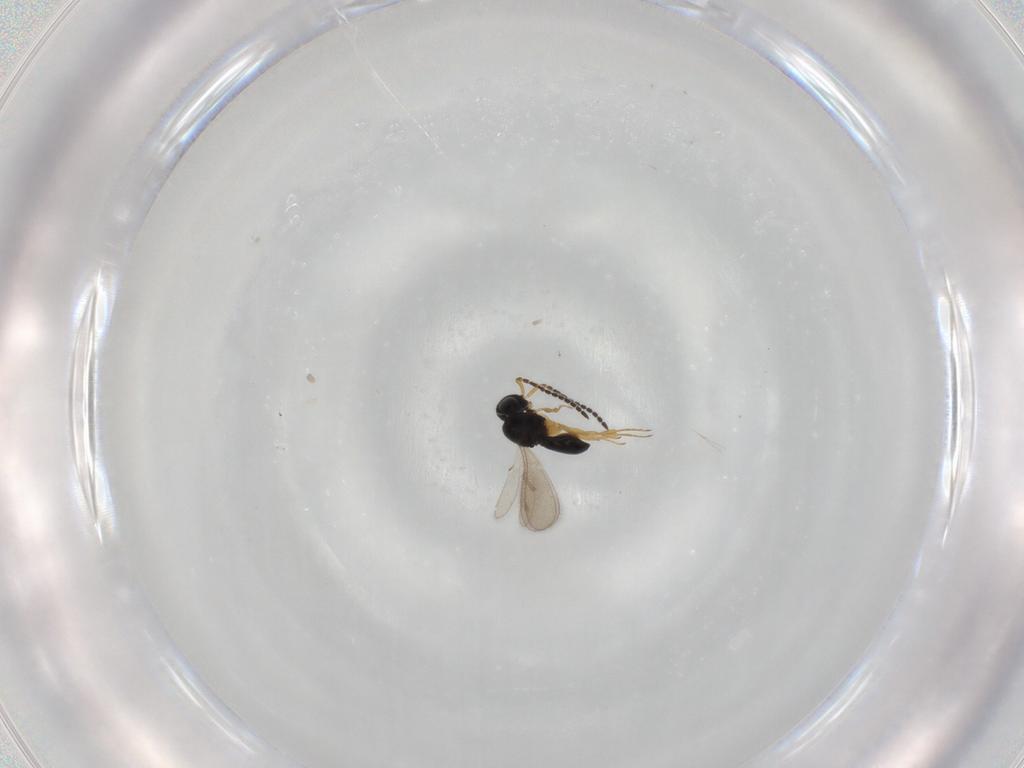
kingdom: Animalia
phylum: Arthropoda
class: Insecta
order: Hymenoptera
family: Scelionidae
